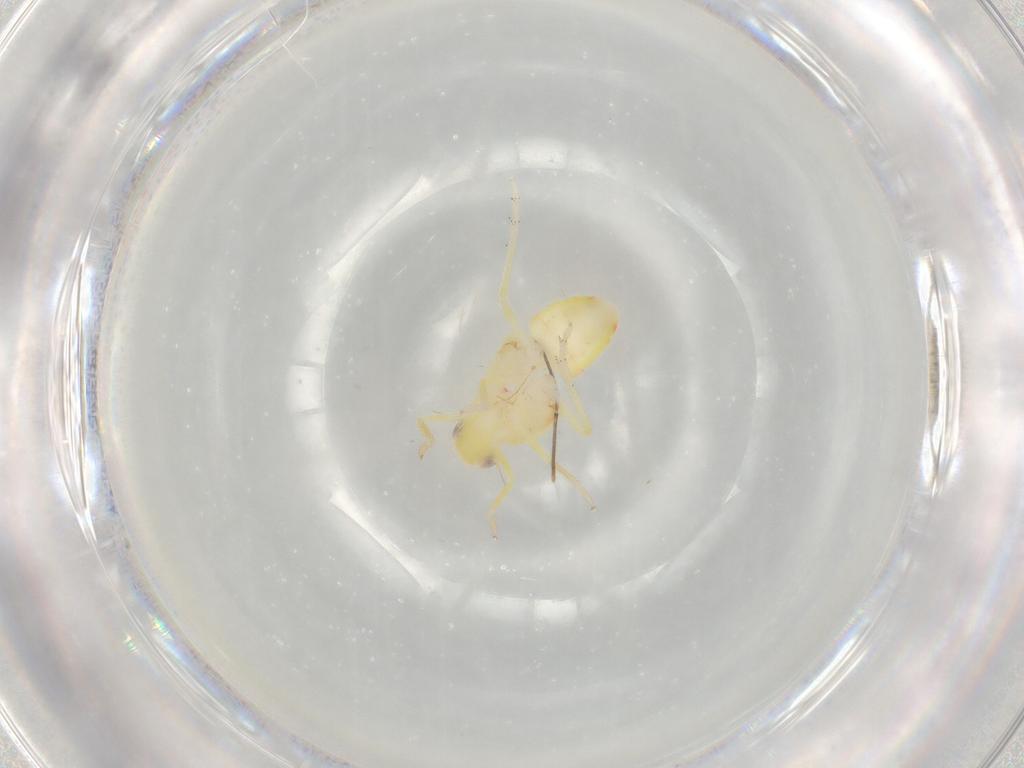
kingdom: Animalia
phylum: Arthropoda
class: Insecta
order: Hemiptera
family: Tropiduchidae
